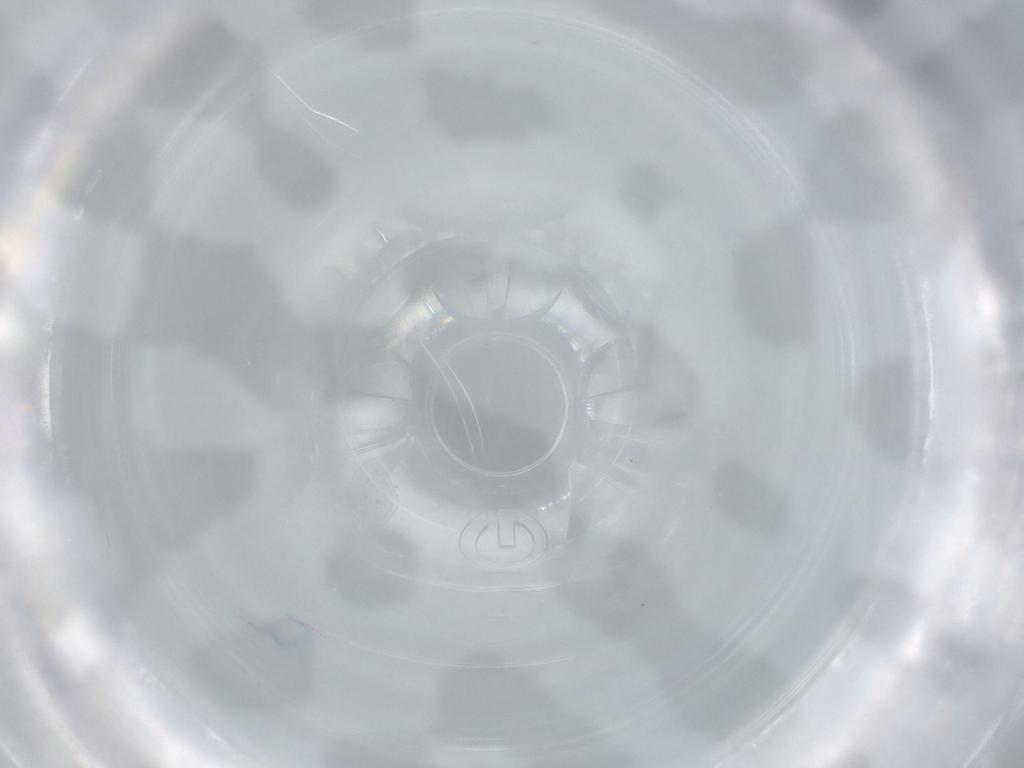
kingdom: Animalia
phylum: Arthropoda
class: Insecta
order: Hymenoptera
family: Aphelinidae
